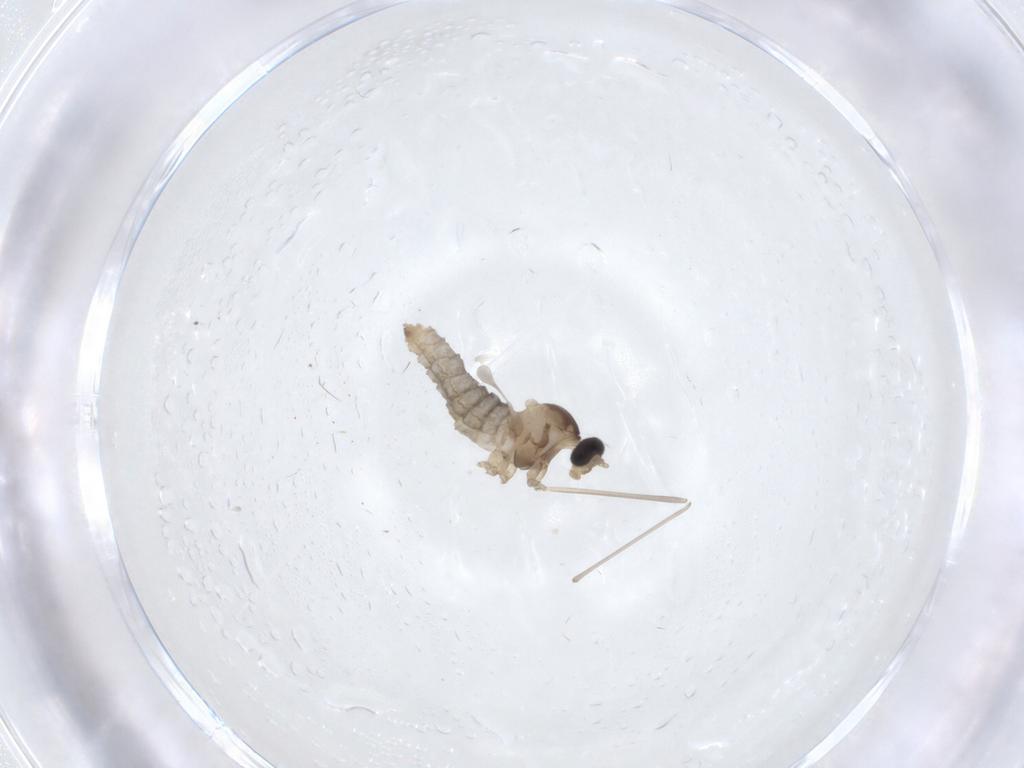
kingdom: Animalia
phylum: Arthropoda
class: Insecta
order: Diptera
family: Cecidomyiidae
